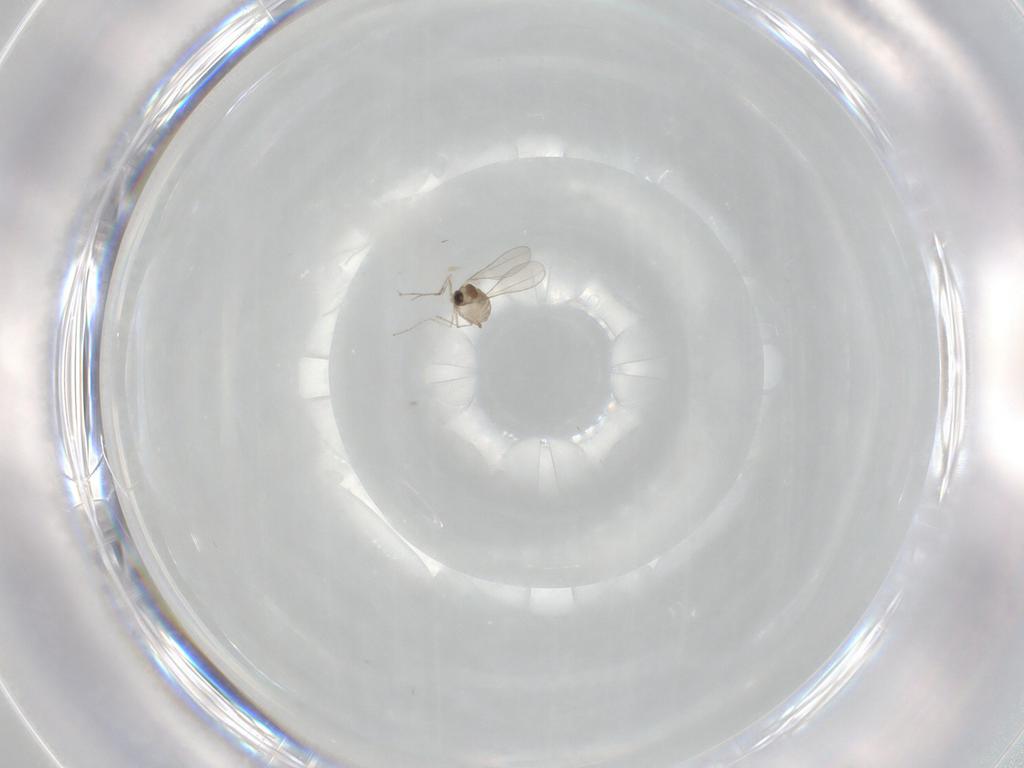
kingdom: Animalia
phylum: Arthropoda
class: Insecta
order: Diptera
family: Cecidomyiidae
